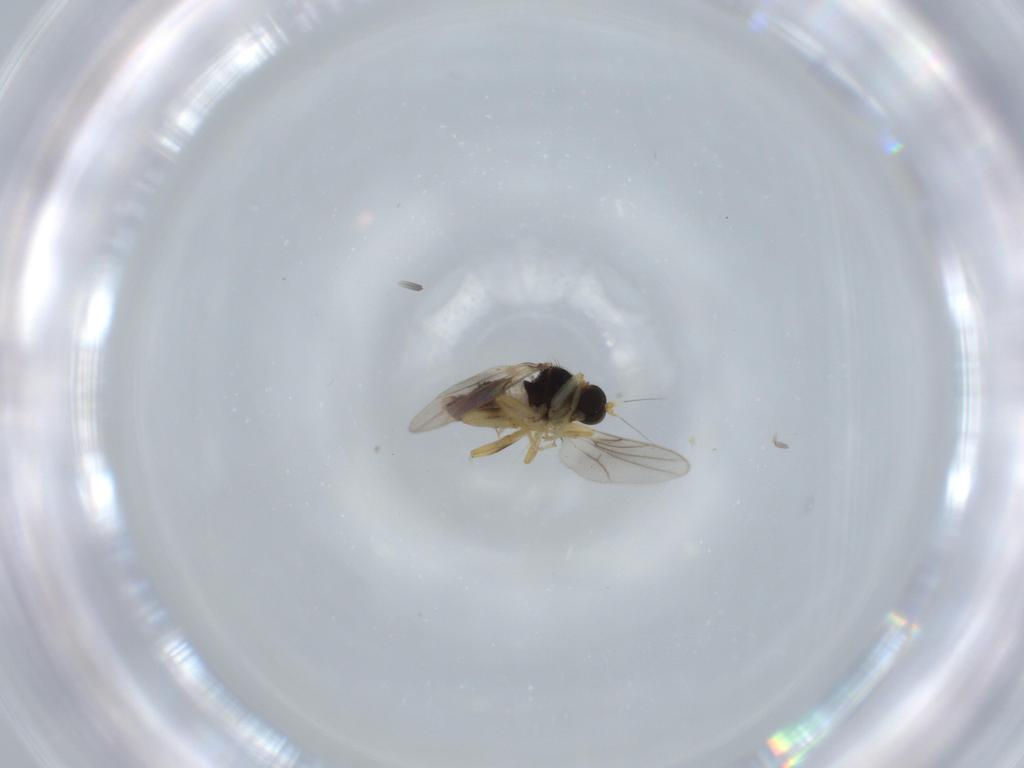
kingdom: Animalia
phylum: Arthropoda
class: Insecta
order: Diptera
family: Hybotidae
